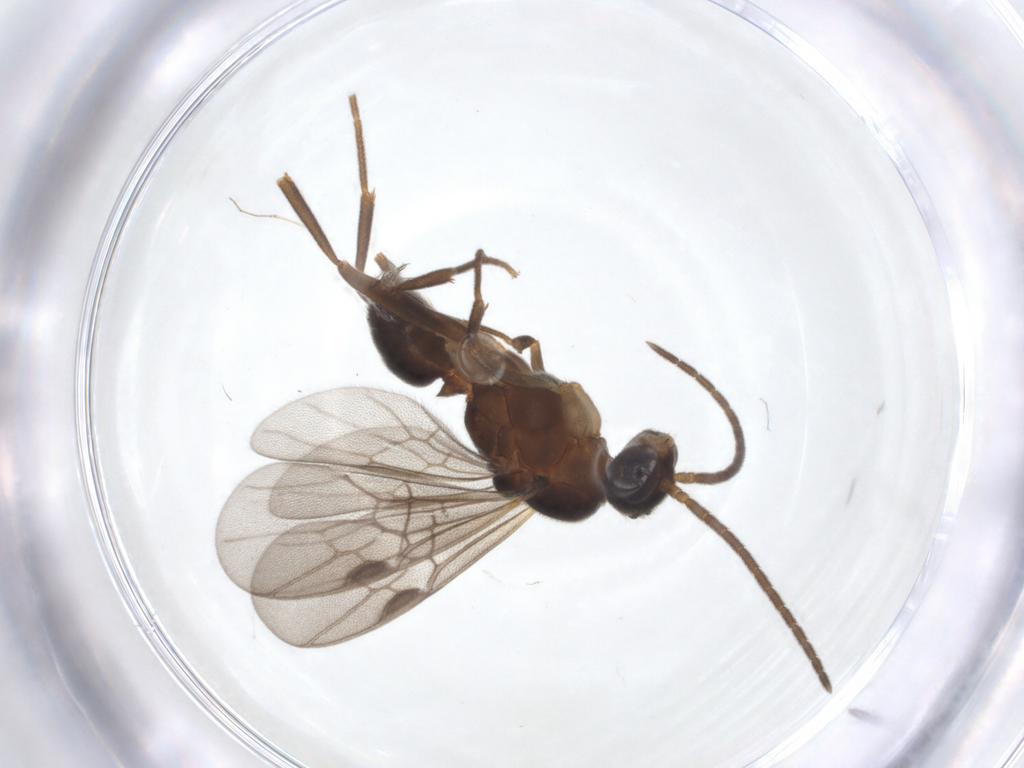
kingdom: Animalia
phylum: Arthropoda
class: Insecta
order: Hymenoptera
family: Formicidae
